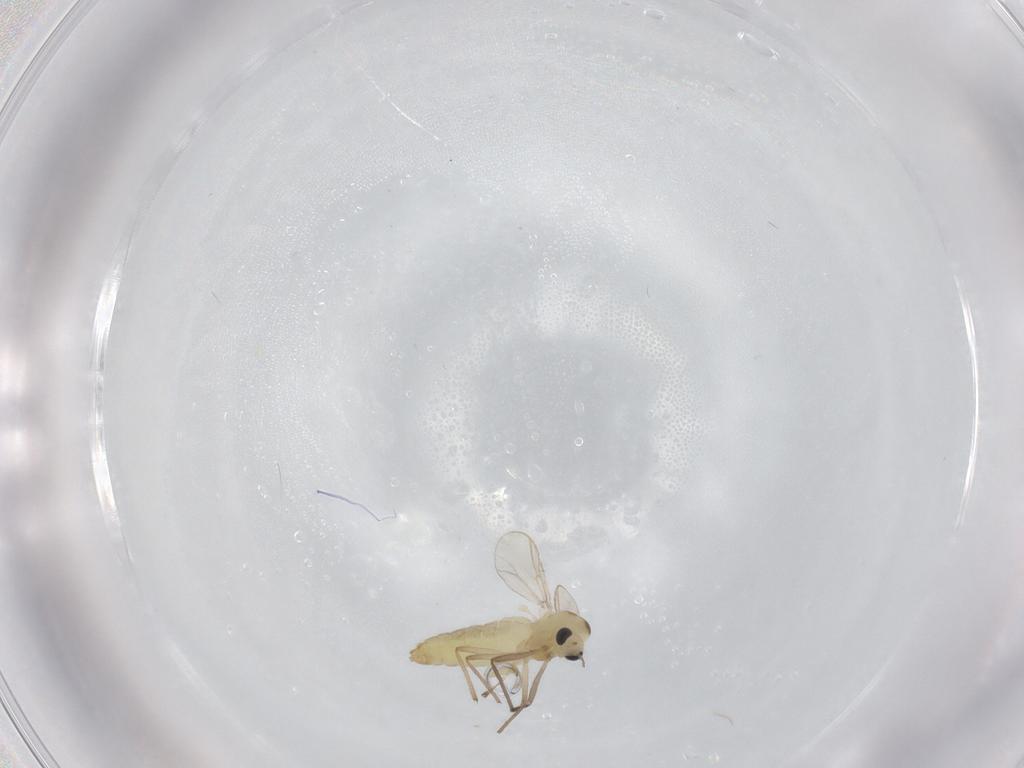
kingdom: Animalia
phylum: Arthropoda
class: Insecta
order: Diptera
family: Chironomidae
